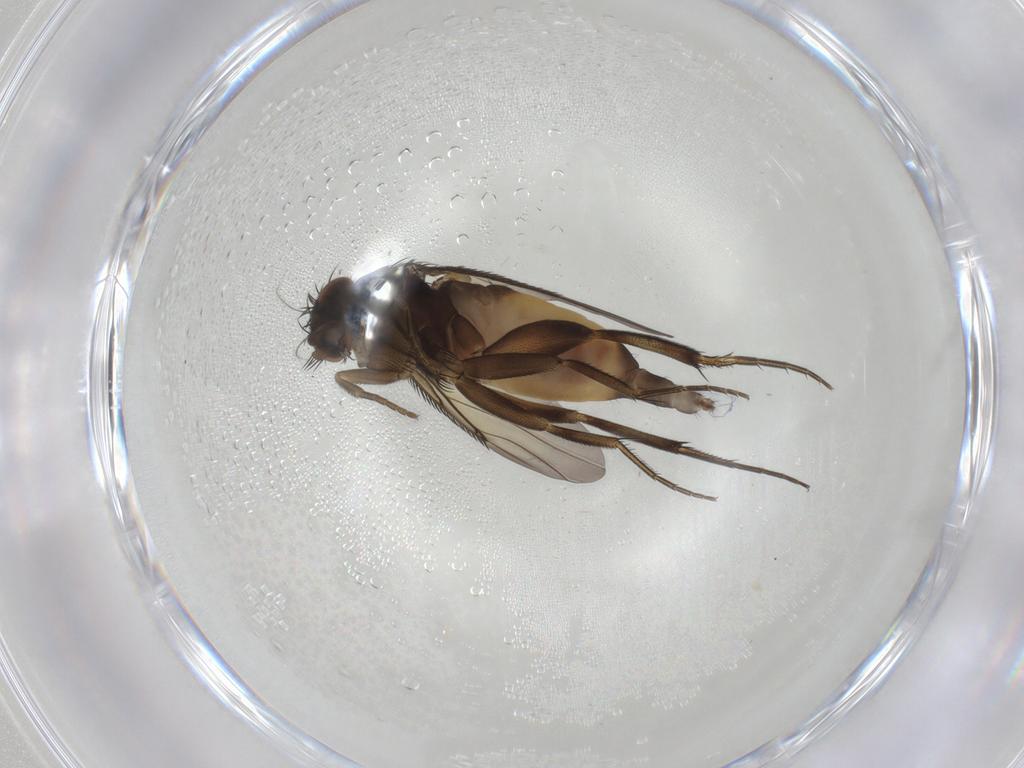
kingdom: Animalia
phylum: Arthropoda
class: Insecta
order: Diptera
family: Phoridae
